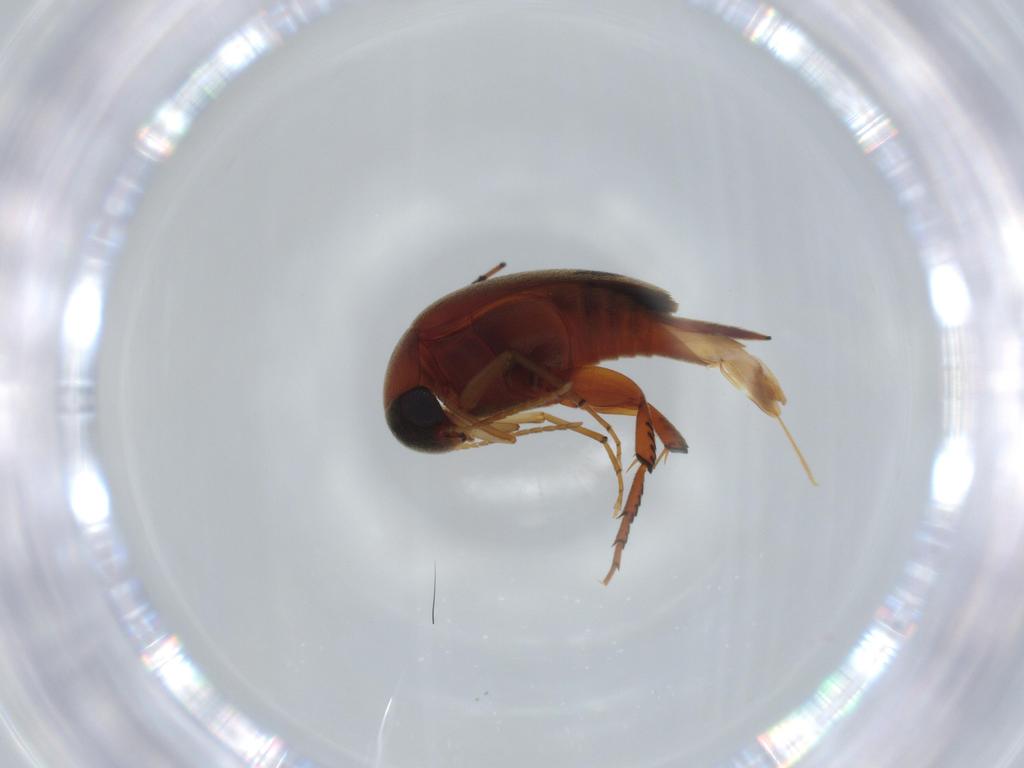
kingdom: Animalia
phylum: Arthropoda
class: Insecta
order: Coleoptera
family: Mordellidae
